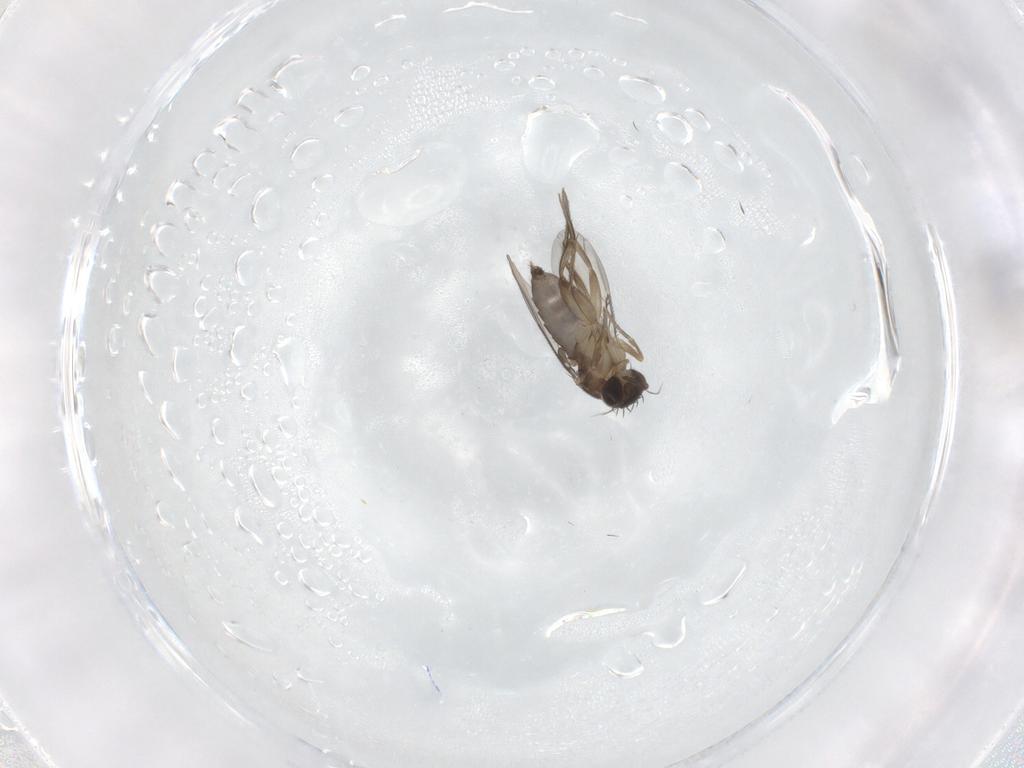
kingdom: Animalia
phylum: Arthropoda
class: Insecta
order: Diptera
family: Phoridae
